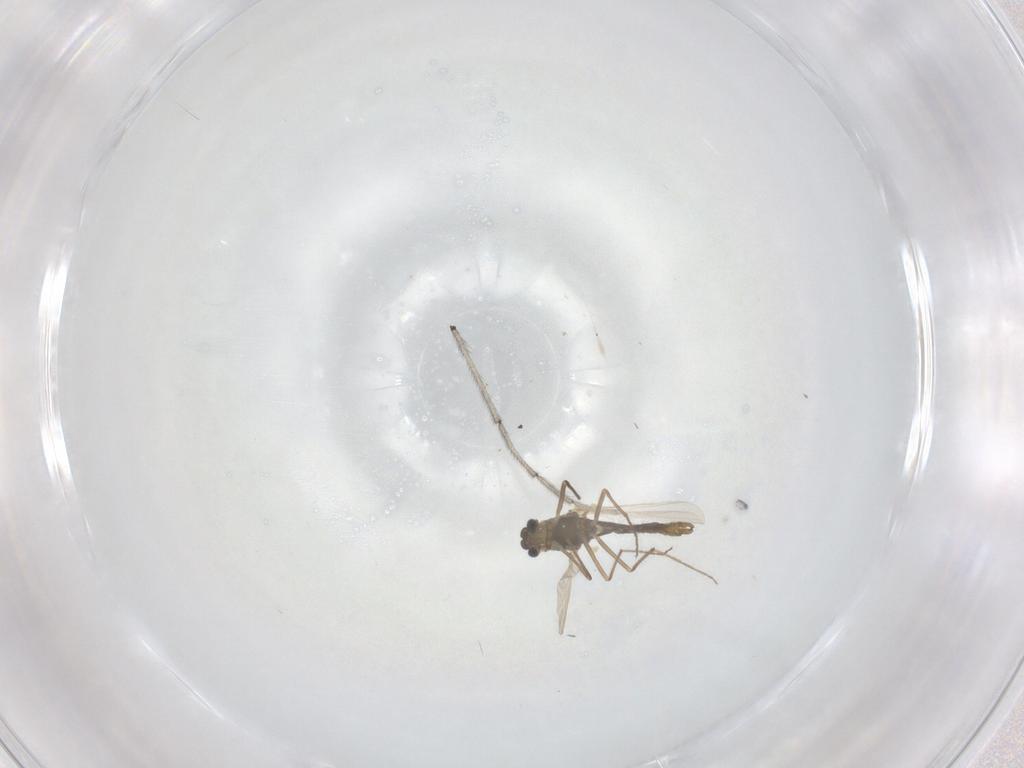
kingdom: Animalia
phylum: Arthropoda
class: Insecta
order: Diptera
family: Chironomidae
